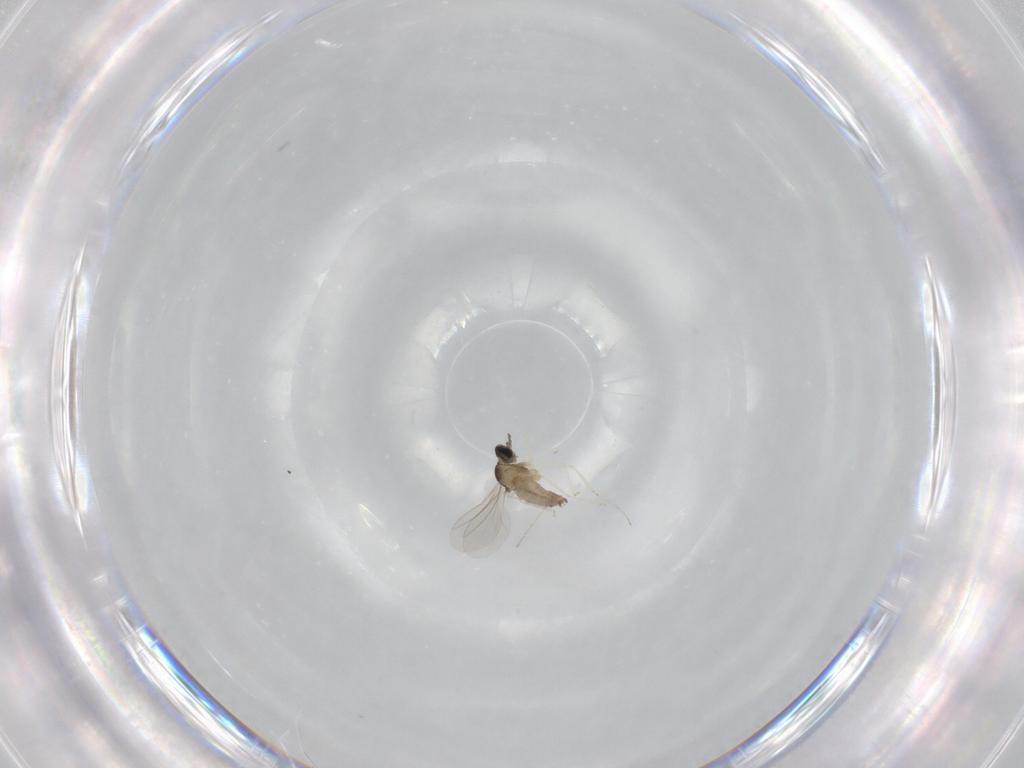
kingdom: Animalia
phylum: Arthropoda
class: Insecta
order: Diptera
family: Cecidomyiidae
